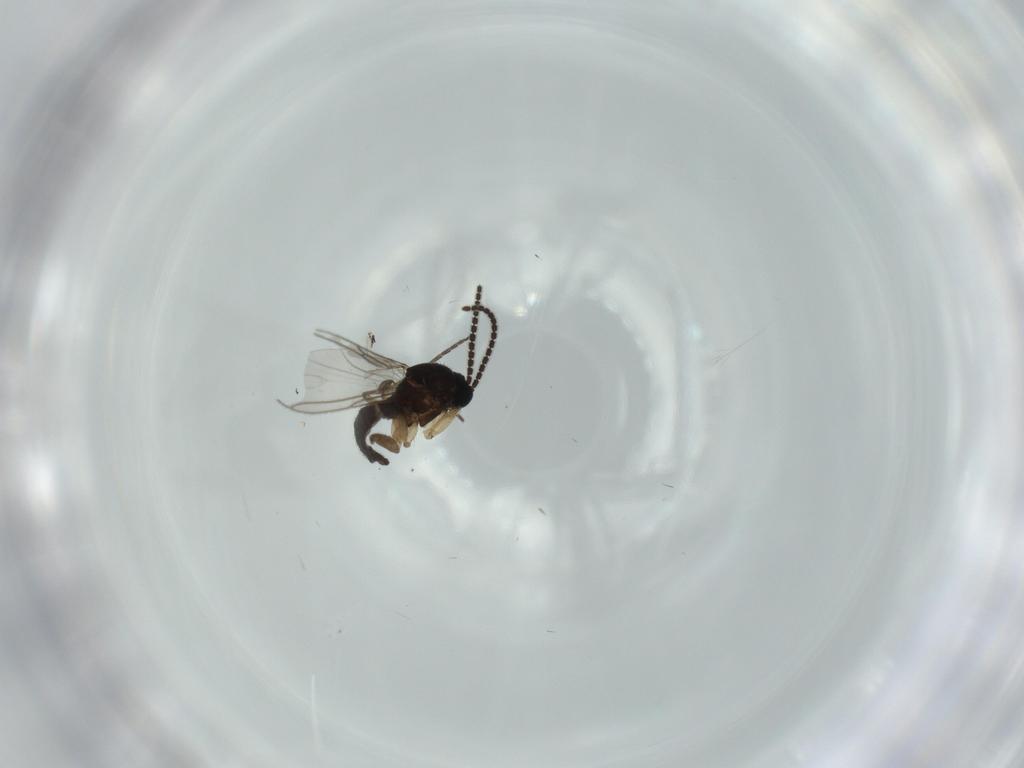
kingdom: Animalia
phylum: Arthropoda
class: Insecta
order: Diptera
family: Sciaridae
